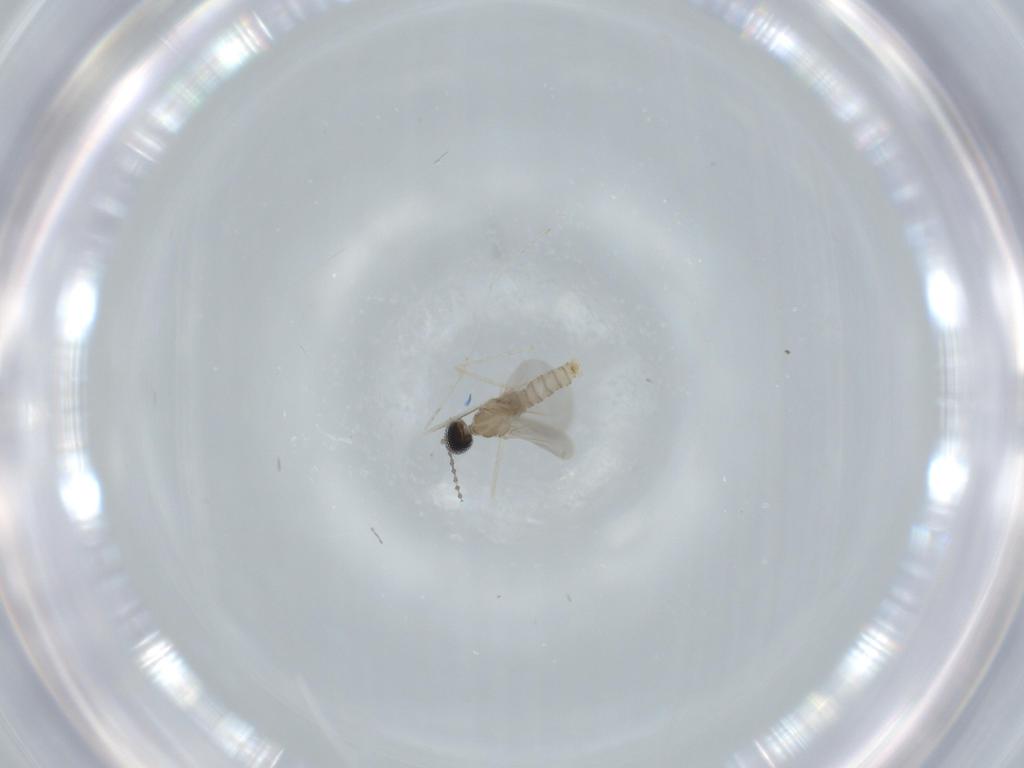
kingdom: Animalia
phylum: Arthropoda
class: Insecta
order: Diptera
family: Cecidomyiidae
